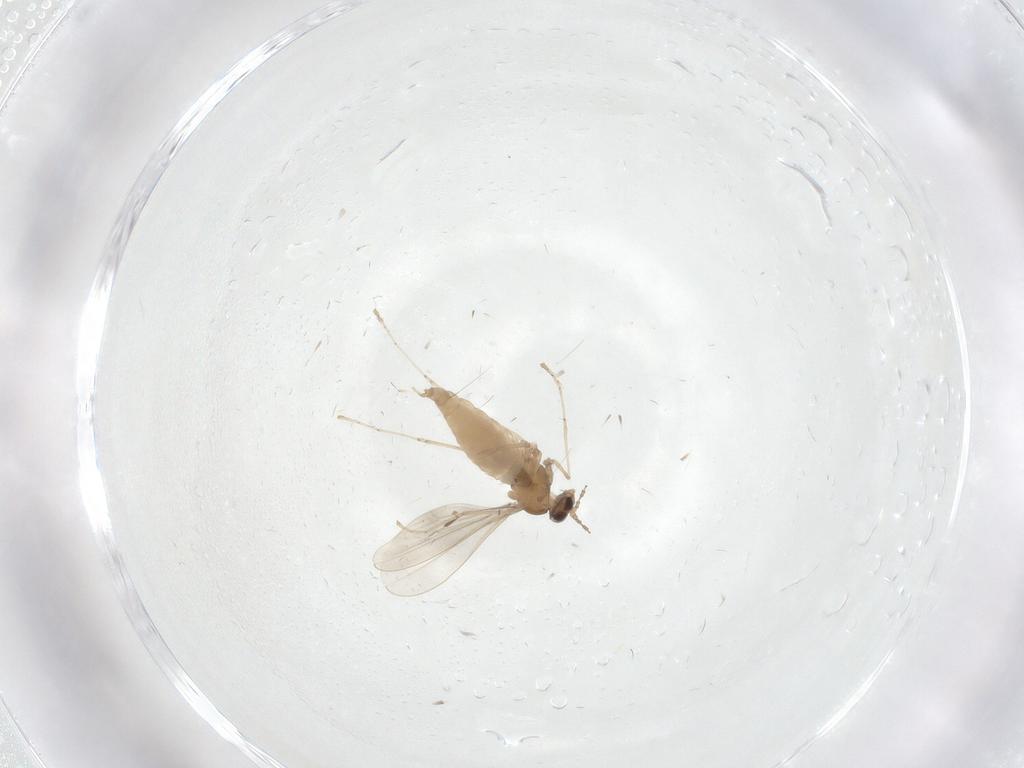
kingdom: Animalia
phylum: Arthropoda
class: Insecta
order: Diptera
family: Cecidomyiidae
